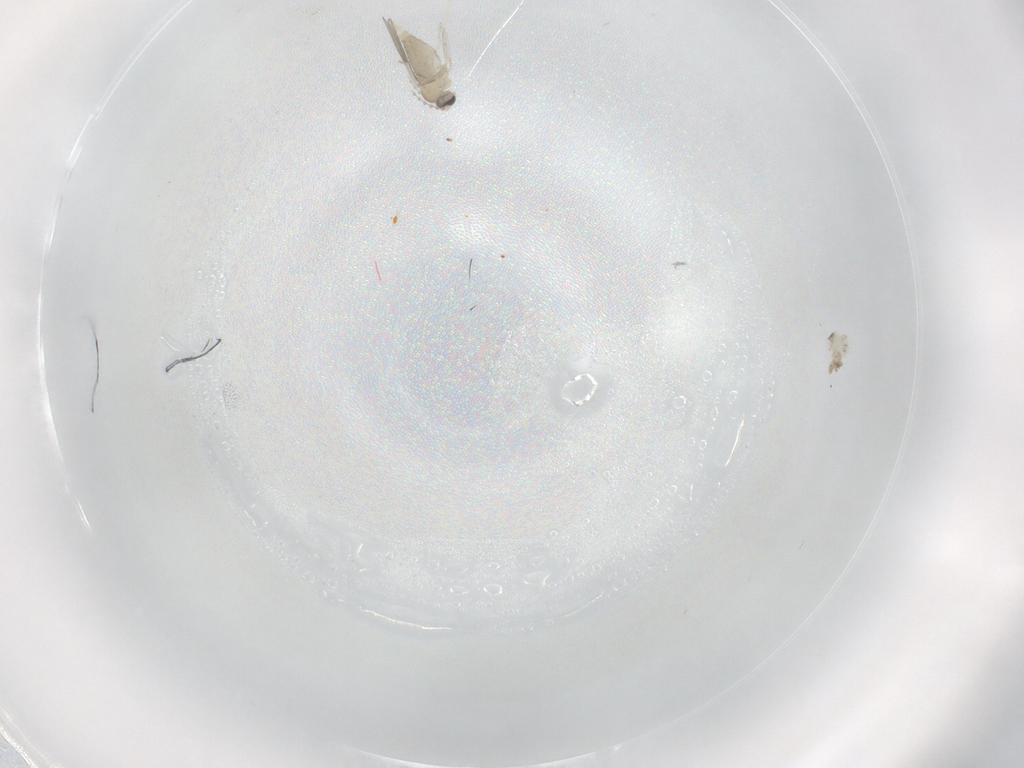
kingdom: Animalia
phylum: Arthropoda
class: Insecta
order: Diptera
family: Cecidomyiidae
